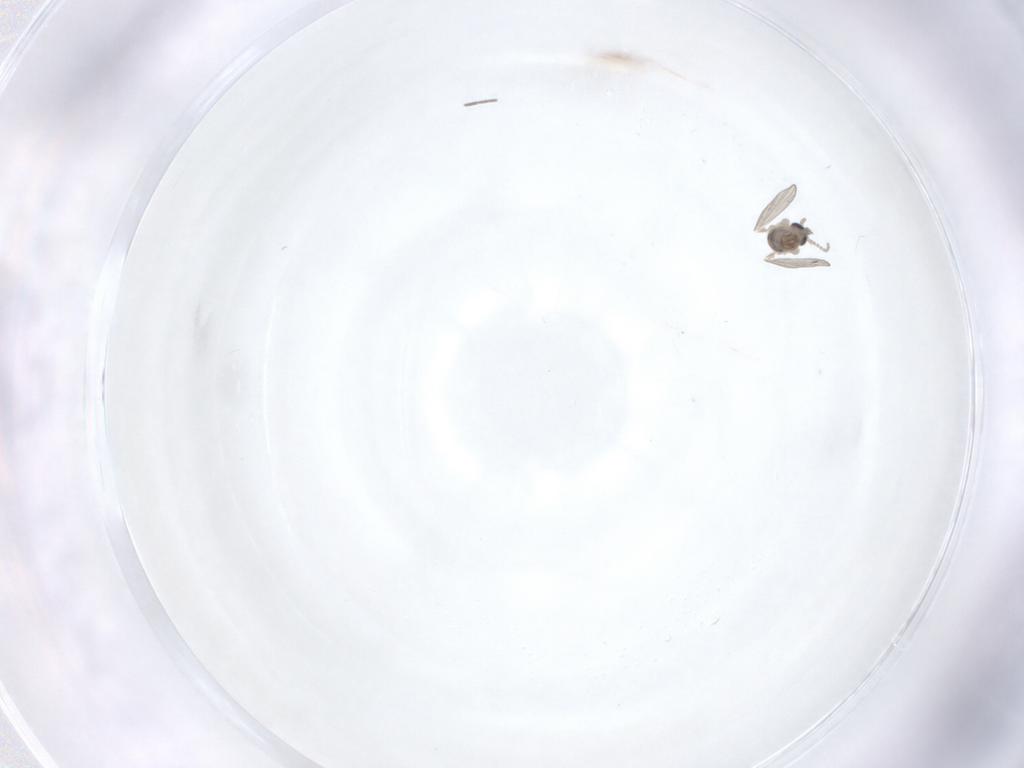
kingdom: Animalia
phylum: Arthropoda
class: Insecta
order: Diptera
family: Psychodidae
